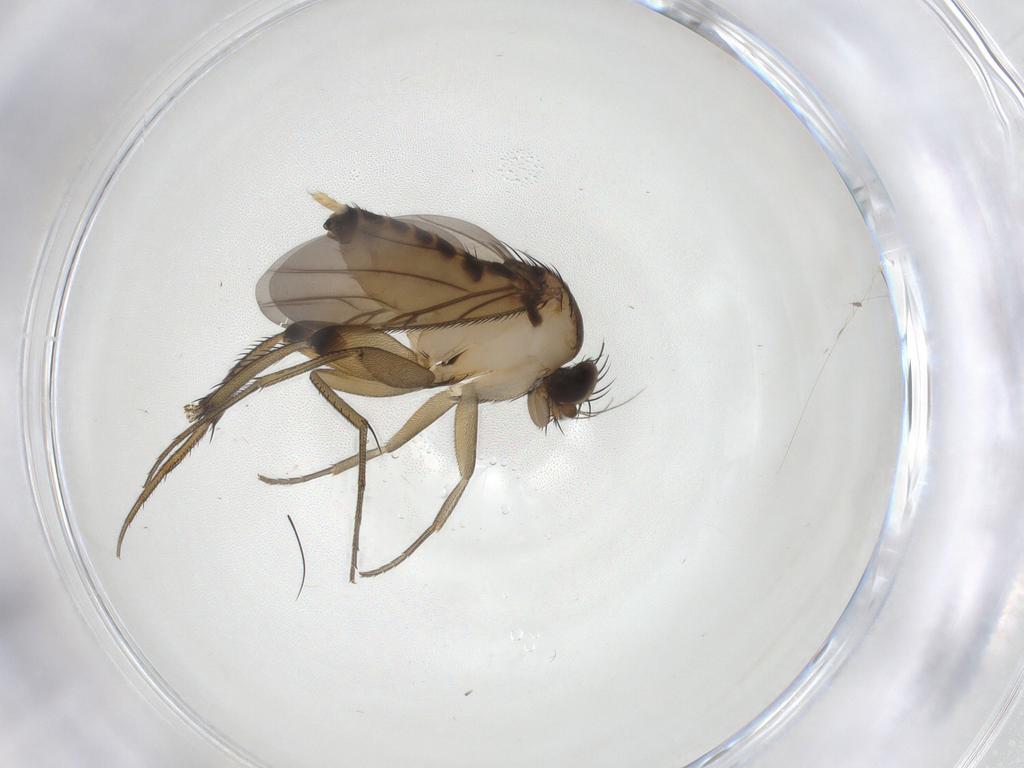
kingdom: Animalia
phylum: Arthropoda
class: Insecta
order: Diptera
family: Phoridae
